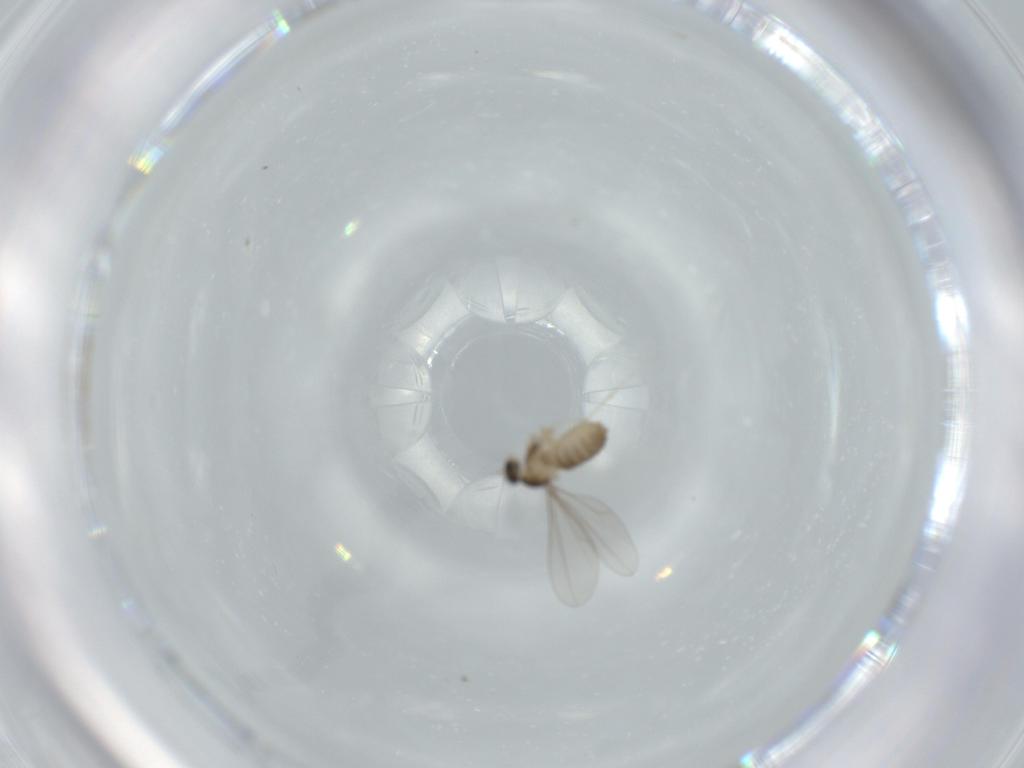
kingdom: Animalia
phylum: Arthropoda
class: Insecta
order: Diptera
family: Cecidomyiidae
